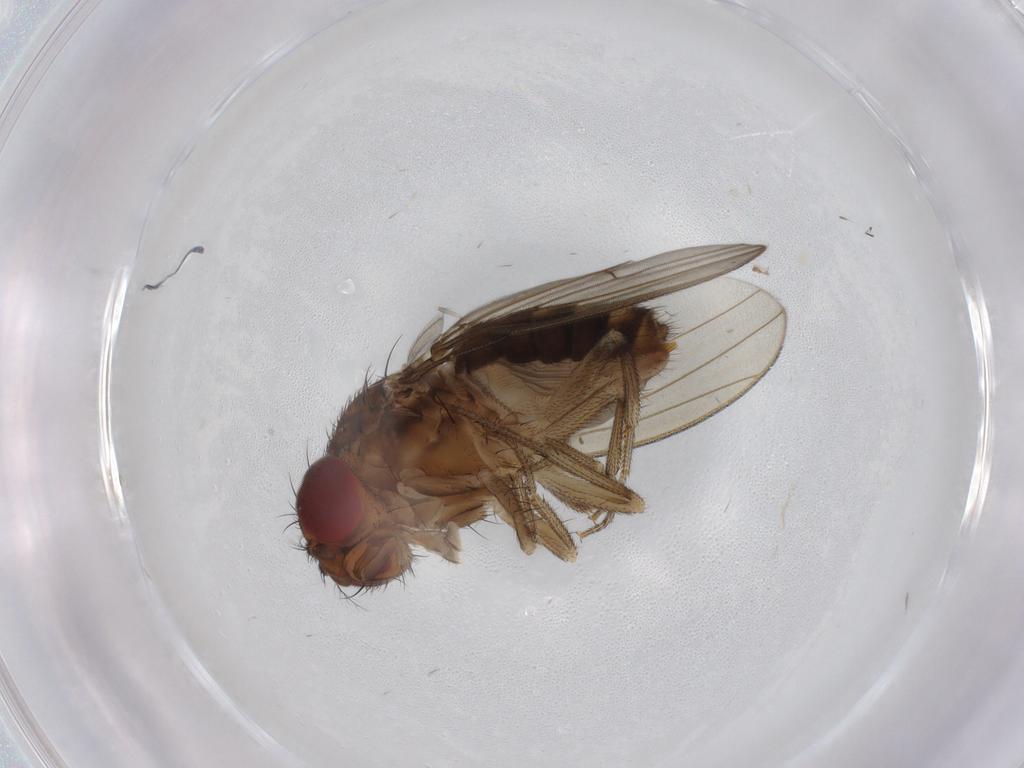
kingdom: Animalia
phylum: Arthropoda
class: Insecta
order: Diptera
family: Drosophilidae
